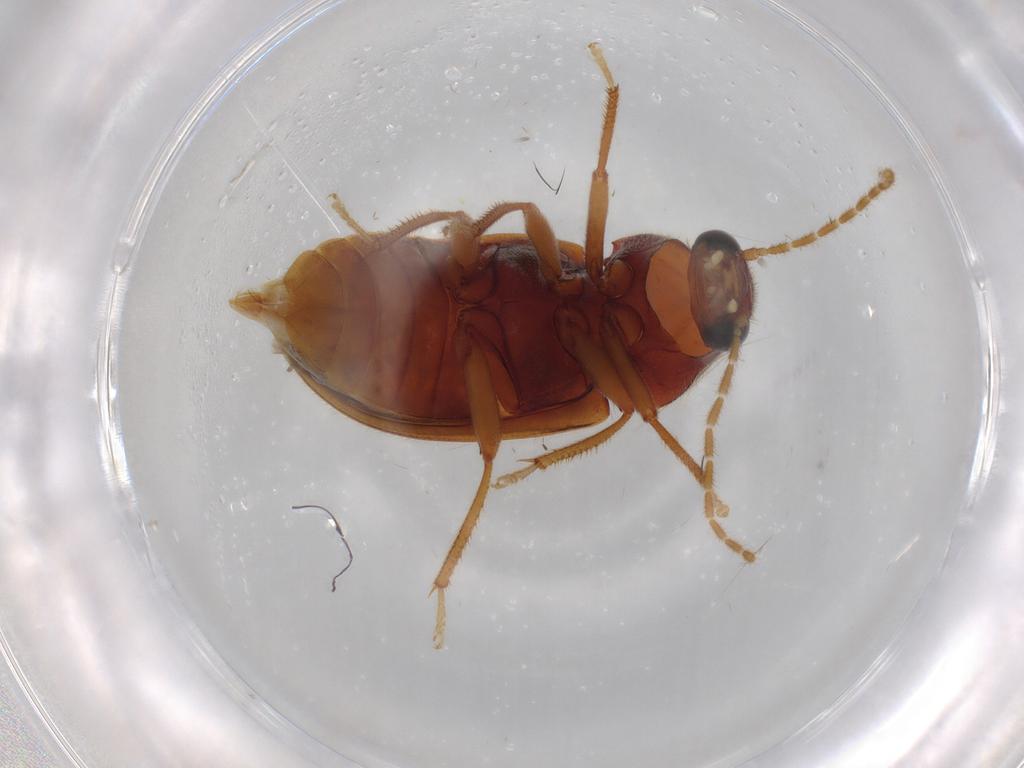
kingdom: Animalia
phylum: Arthropoda
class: Insecta
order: Coleoptera
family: Ptilodactylidae
